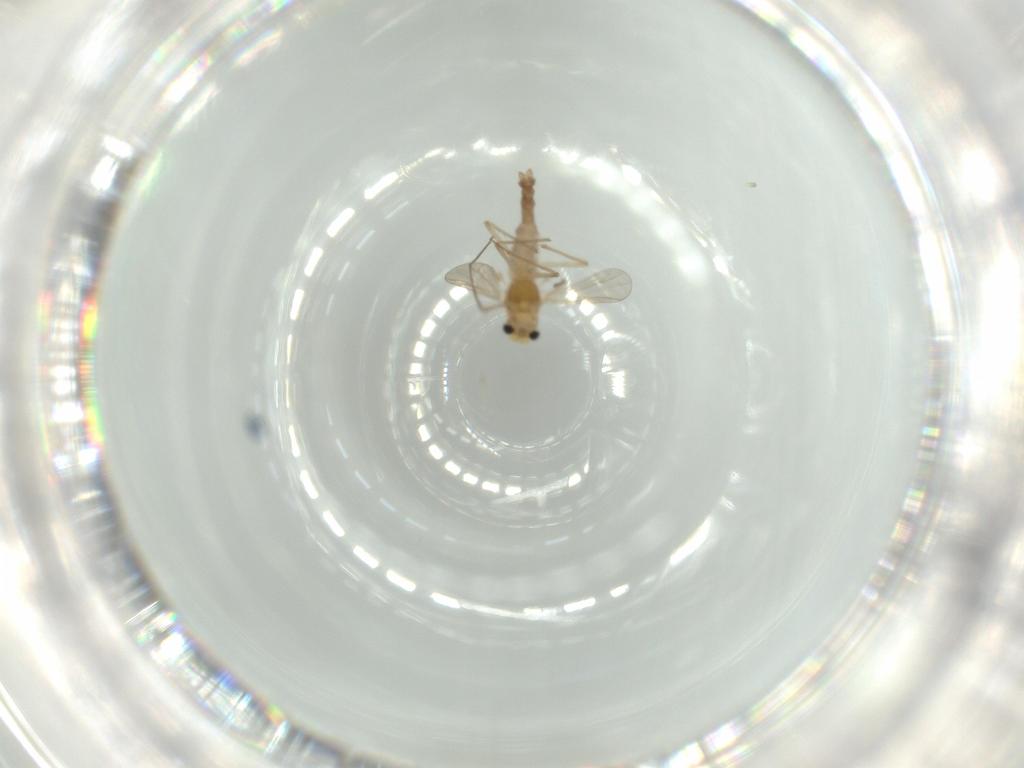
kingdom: Animalia
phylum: Arthropoda
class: Insecta
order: Diptera
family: Chironomidae
